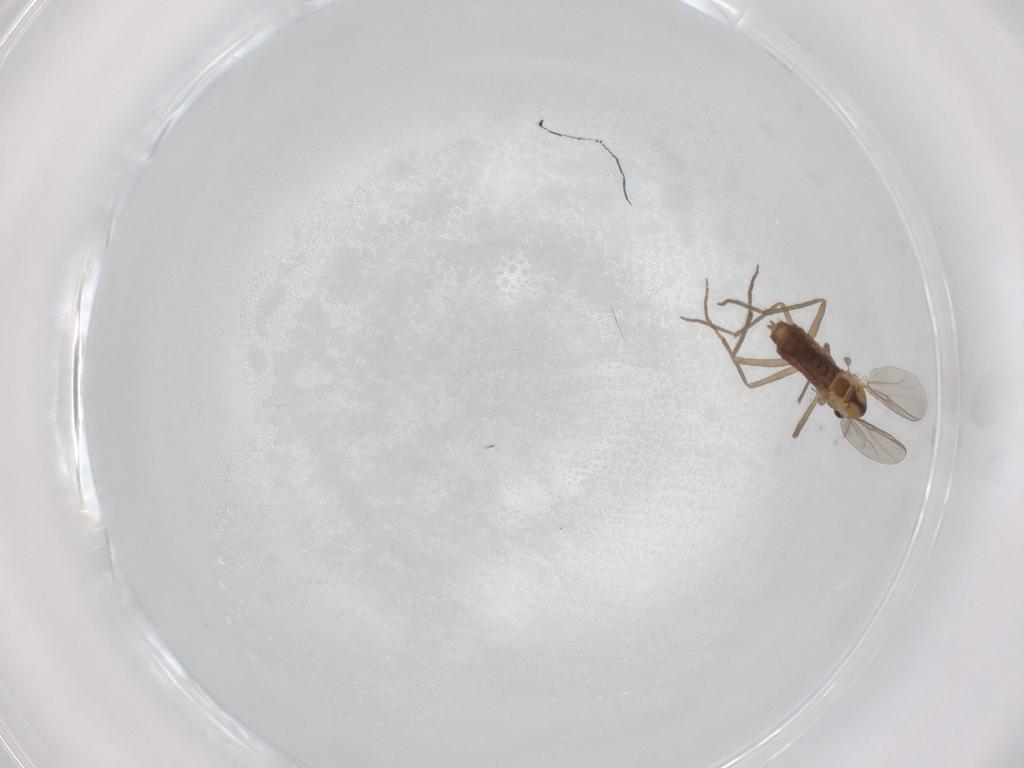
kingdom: Animalia
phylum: Arthropoda
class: Insecta
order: Diptera
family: Chironomidae
